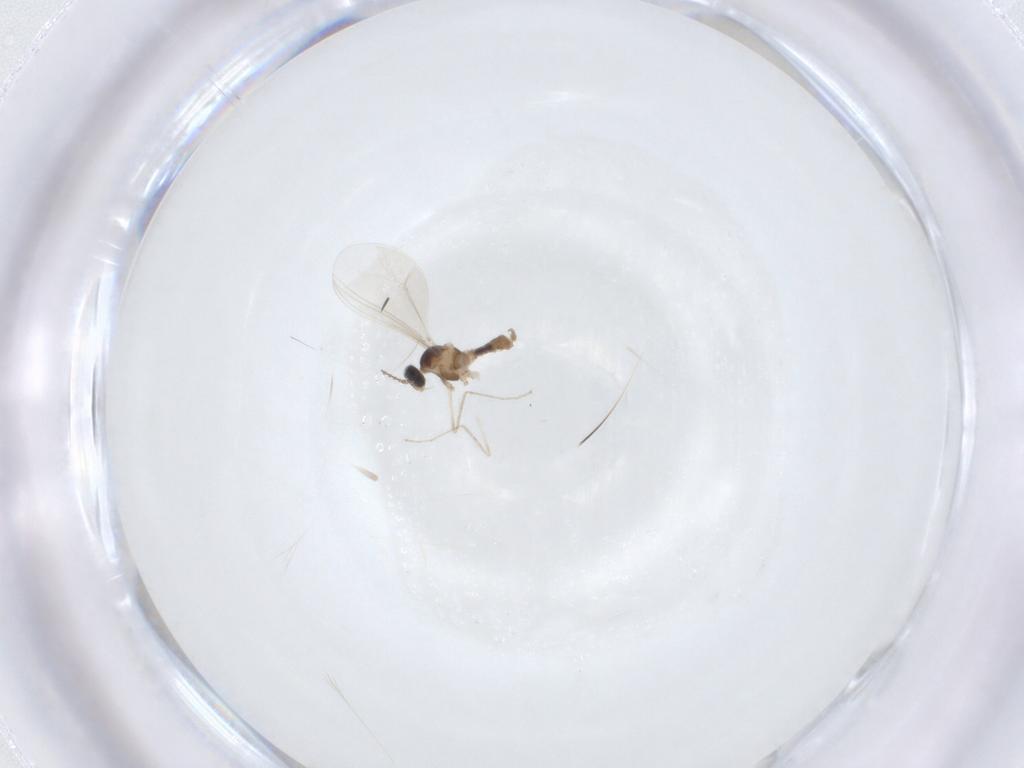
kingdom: Animalia
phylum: Arthropoda
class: Insecta
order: Diptera
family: Cecidomyiidae
